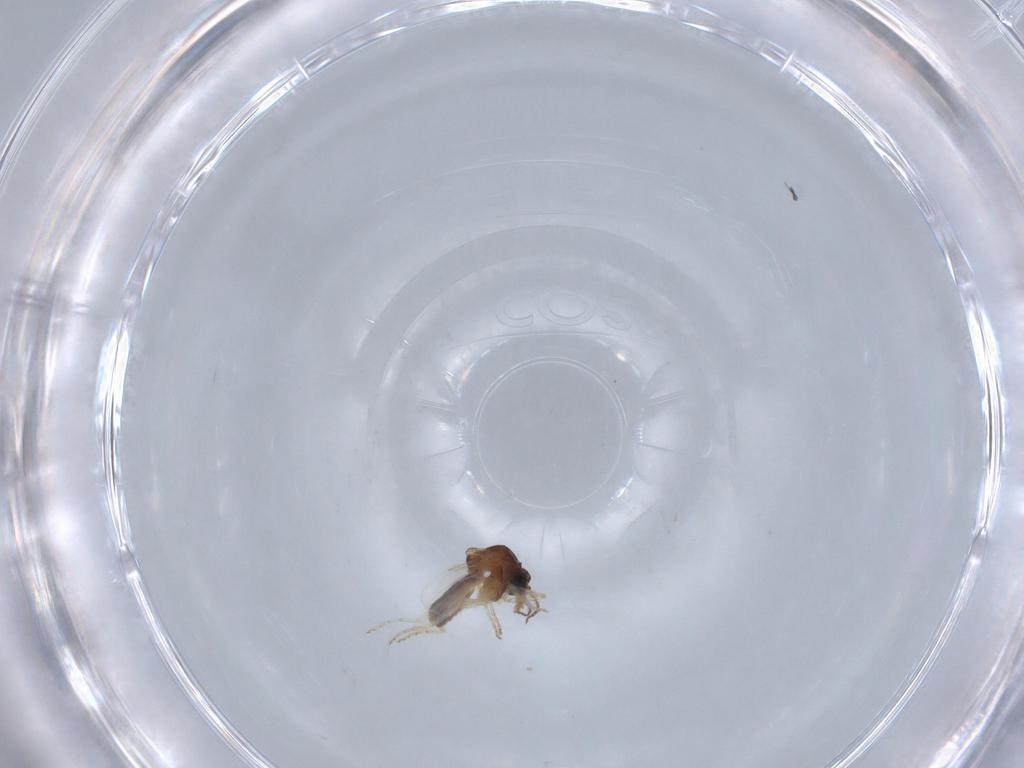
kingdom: Animalia
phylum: Arthropoda
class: Insecta
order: Diptera
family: Ceratopogonidae
